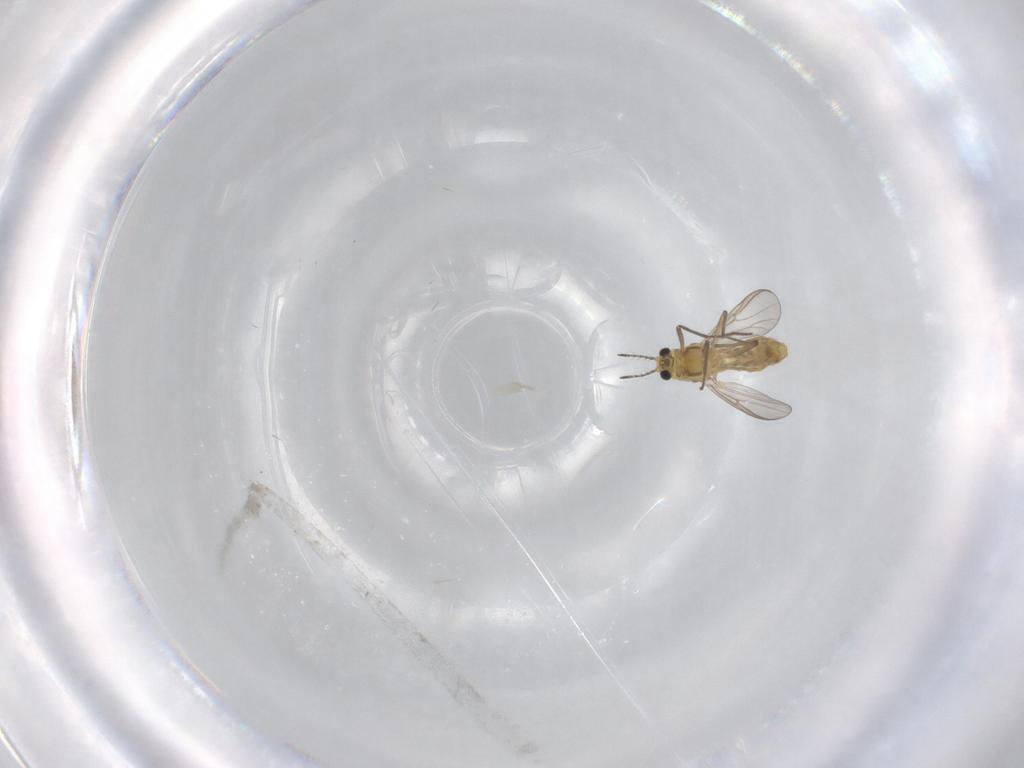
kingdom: Animalia
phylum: Arthropoda
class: Insecta
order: Diptera
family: Chironomidae
